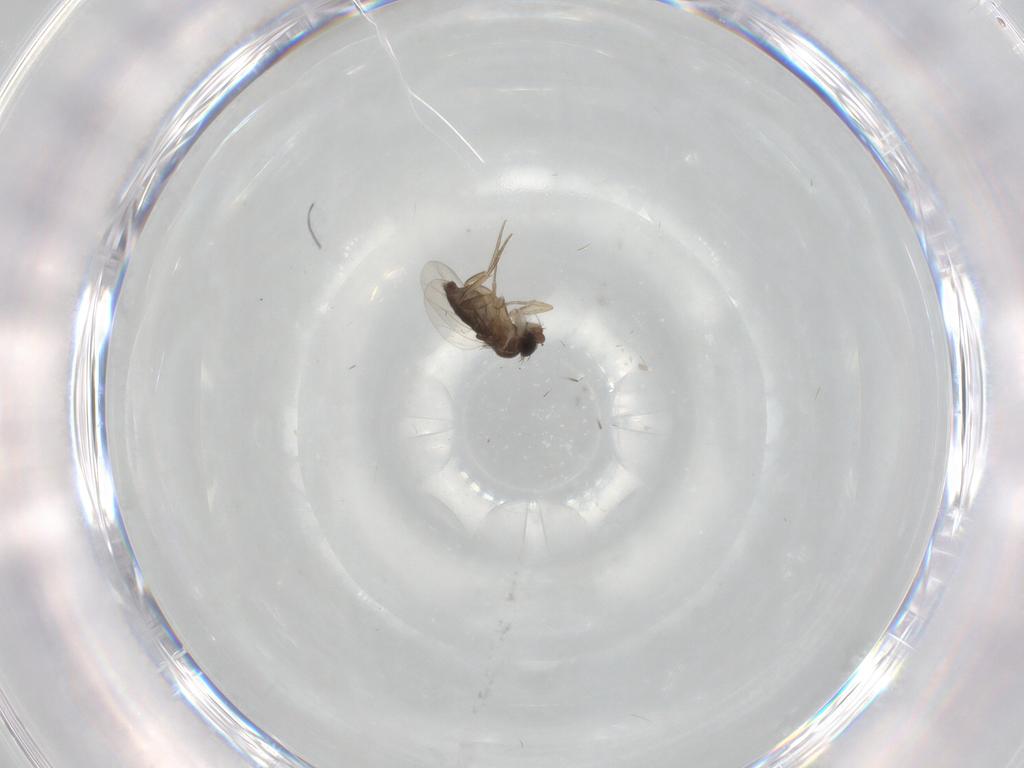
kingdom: Animalia
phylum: Arthropoda
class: Insecta
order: Diptera
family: Phoridae
